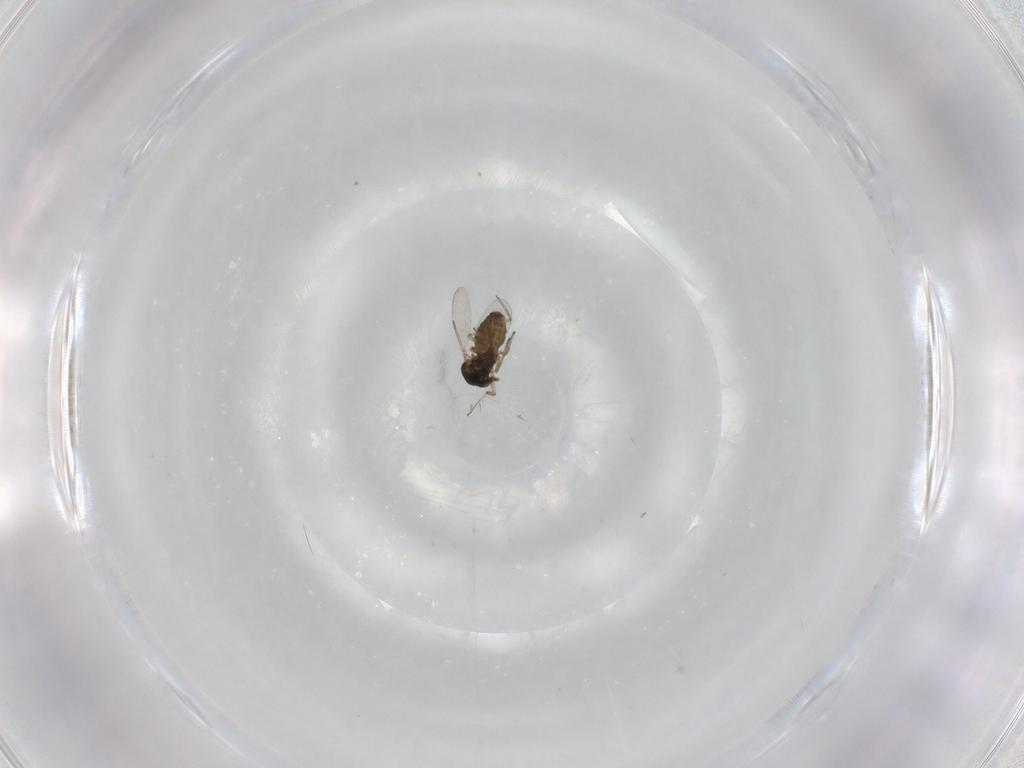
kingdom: Animalia
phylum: Arthropoda
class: Insecta
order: Diptera
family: Ceratopogonidae
